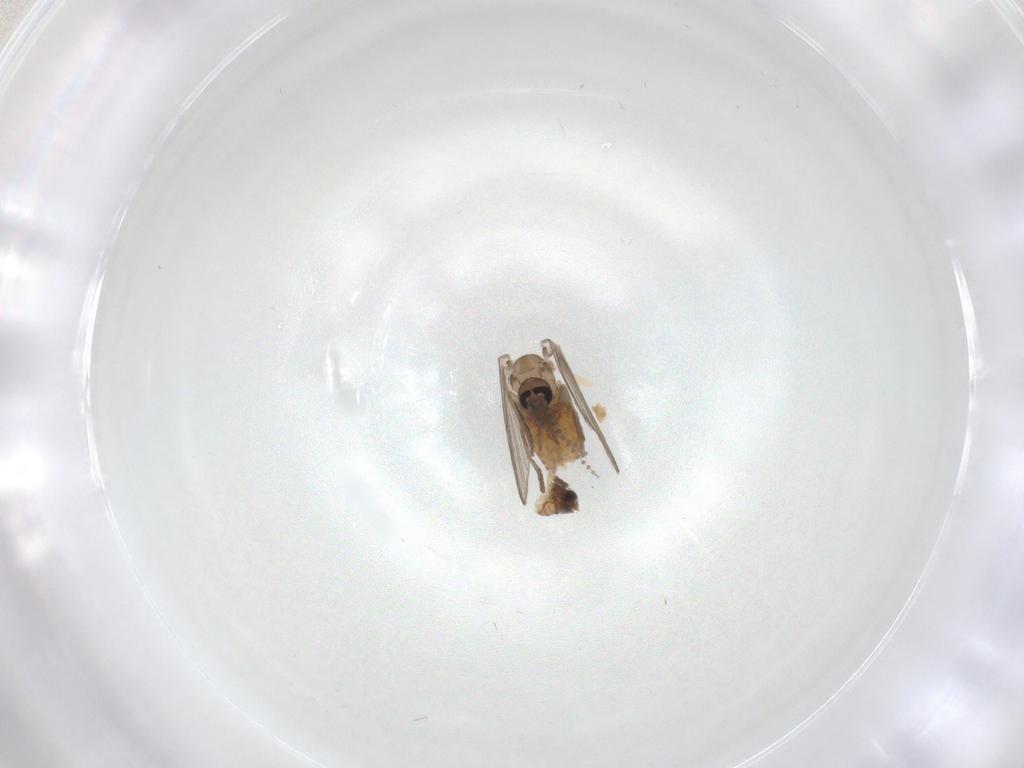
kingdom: Animalia
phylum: Arthropoda
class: Insecta
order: Diptera
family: Psychodidae
